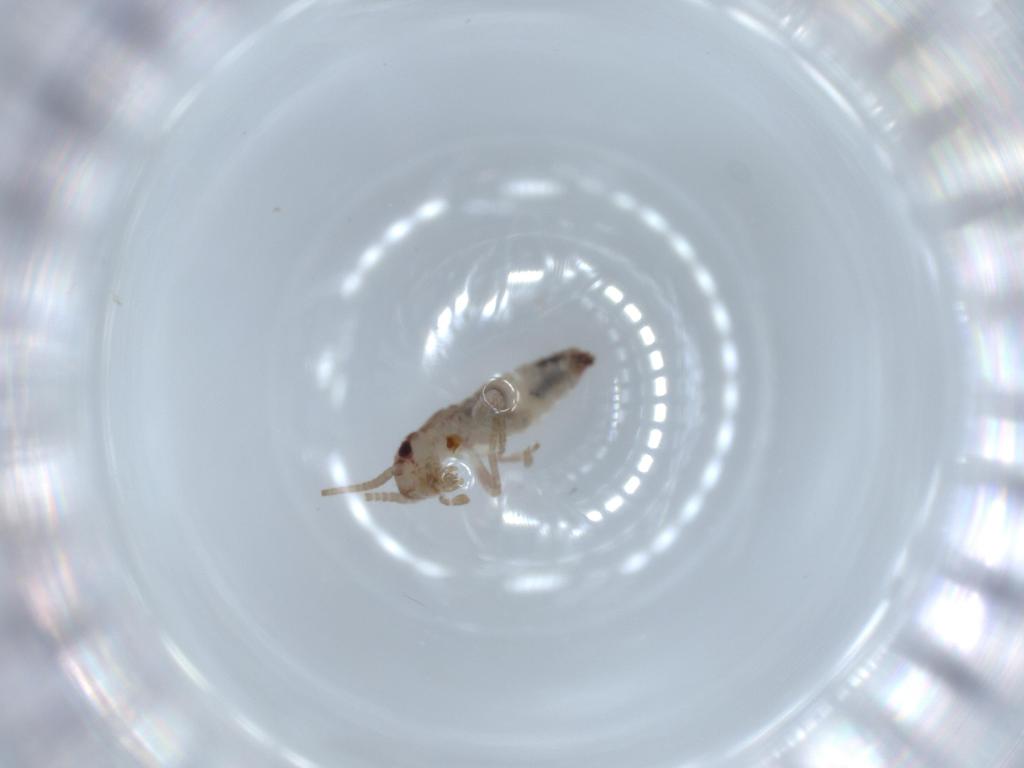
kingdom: Animalia
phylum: Arthropoda
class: Insecta
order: Orthoptera
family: Mogoplistidae
